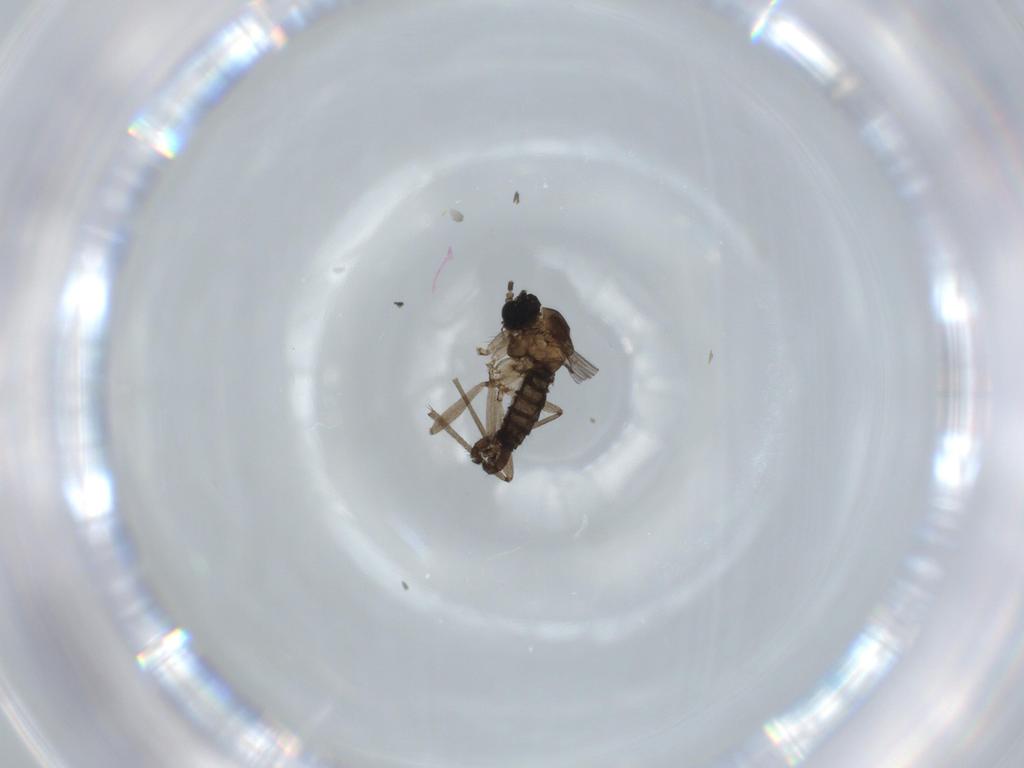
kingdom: Animalia
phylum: Arthropoda
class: Insecta
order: Diptera
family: Sciaridae
